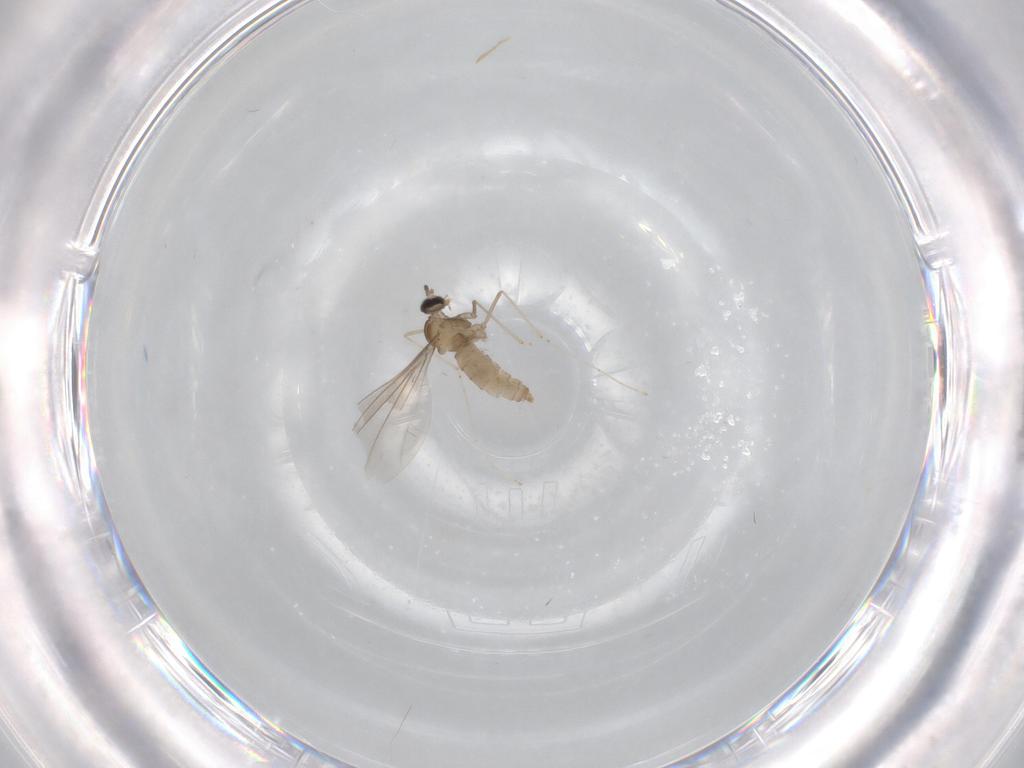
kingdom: Animalia
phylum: Arthropoda
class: Insecta
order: Diptera
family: Cecidomyiidae
